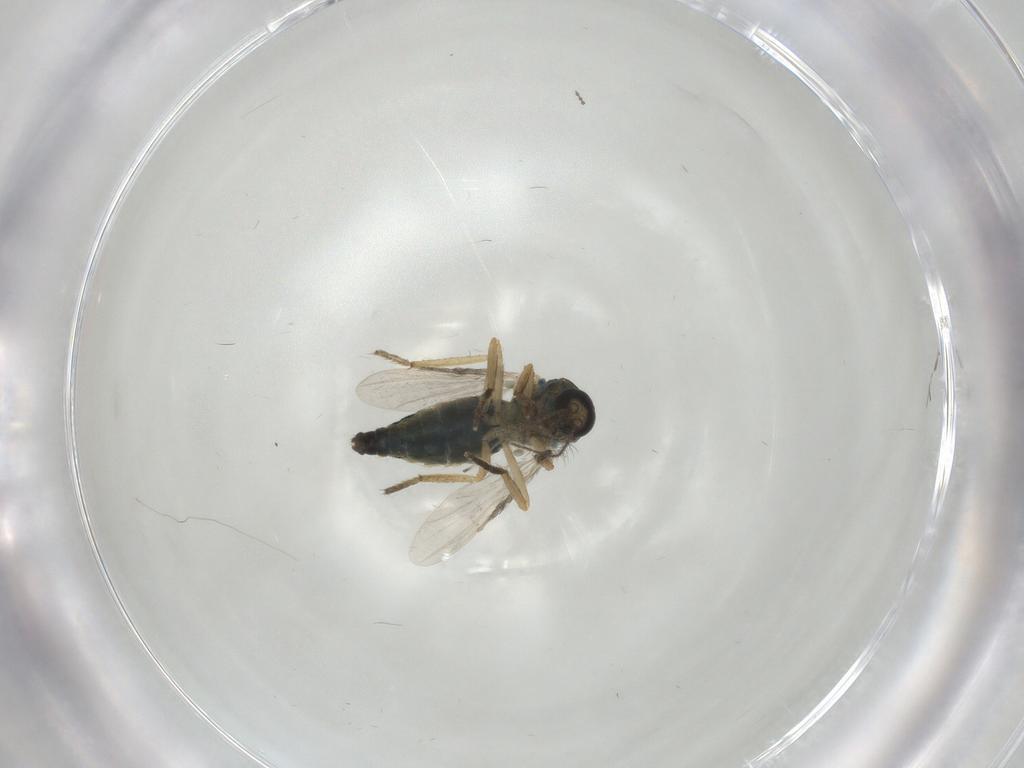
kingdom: Animalia
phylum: Arthropoda
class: Insecta
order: Diptera
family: Ceratopogonidae
